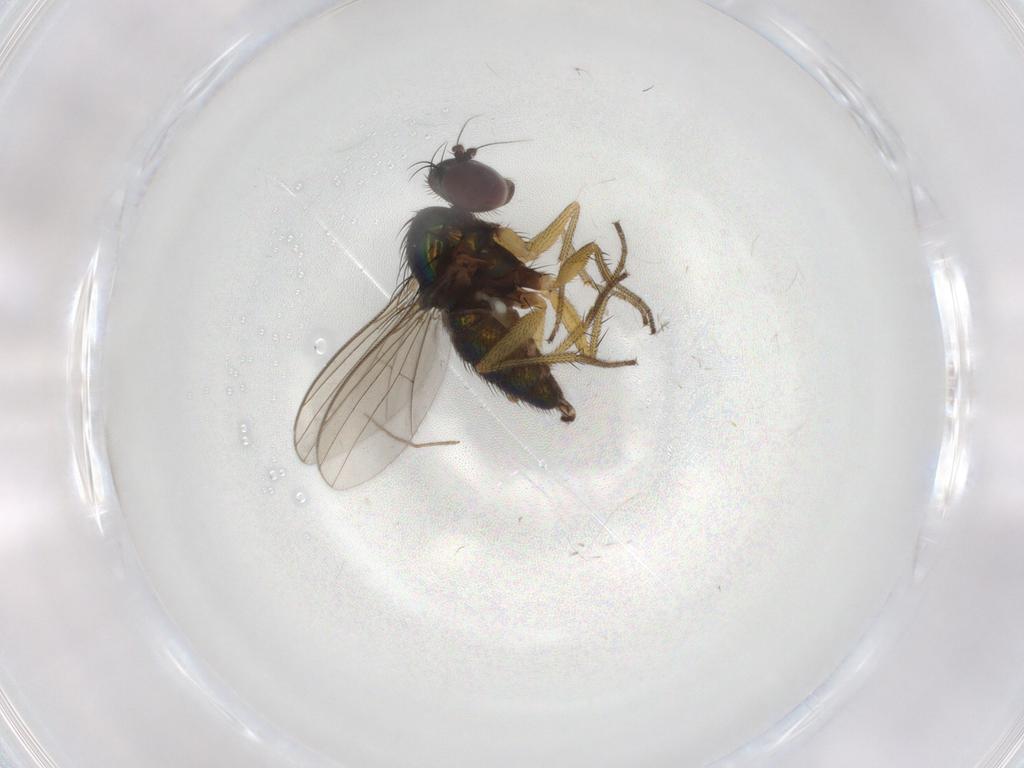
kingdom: Animalia
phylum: Arthropoda
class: Insecta
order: Diptera
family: Dolichopodidae
